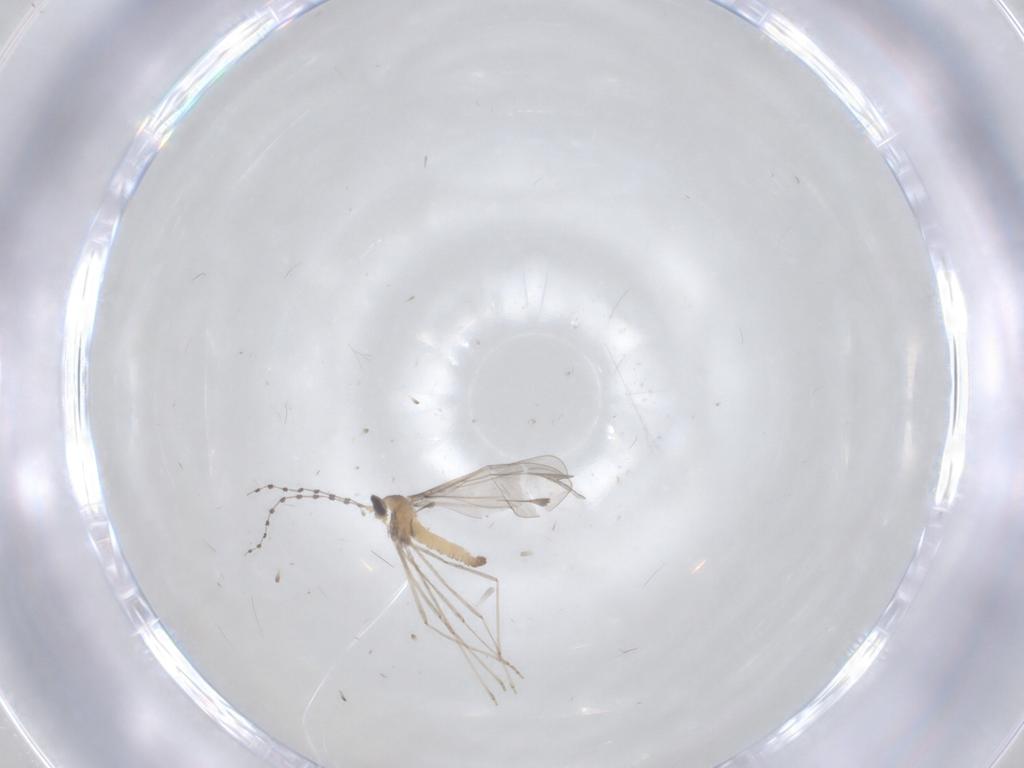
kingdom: Animalia
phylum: Arthropoda
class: Insecta
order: Diptera
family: Cecidomyiidae
